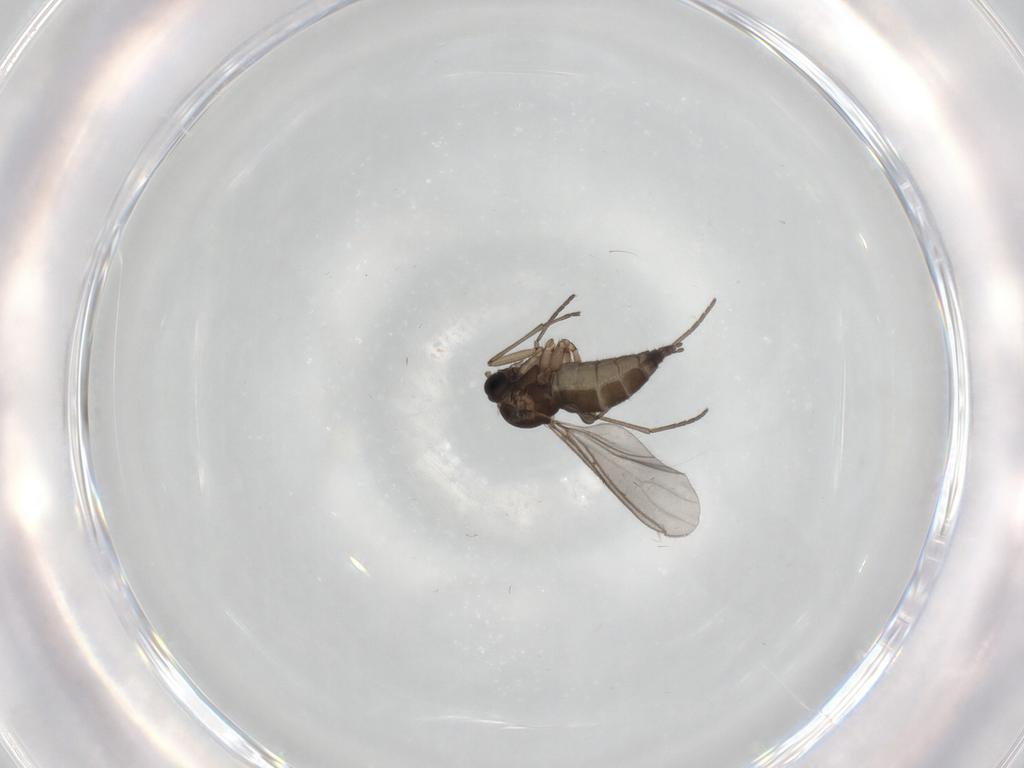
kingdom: Animalia
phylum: Arthropoda
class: Insecta
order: Diptera
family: Sciaridae
